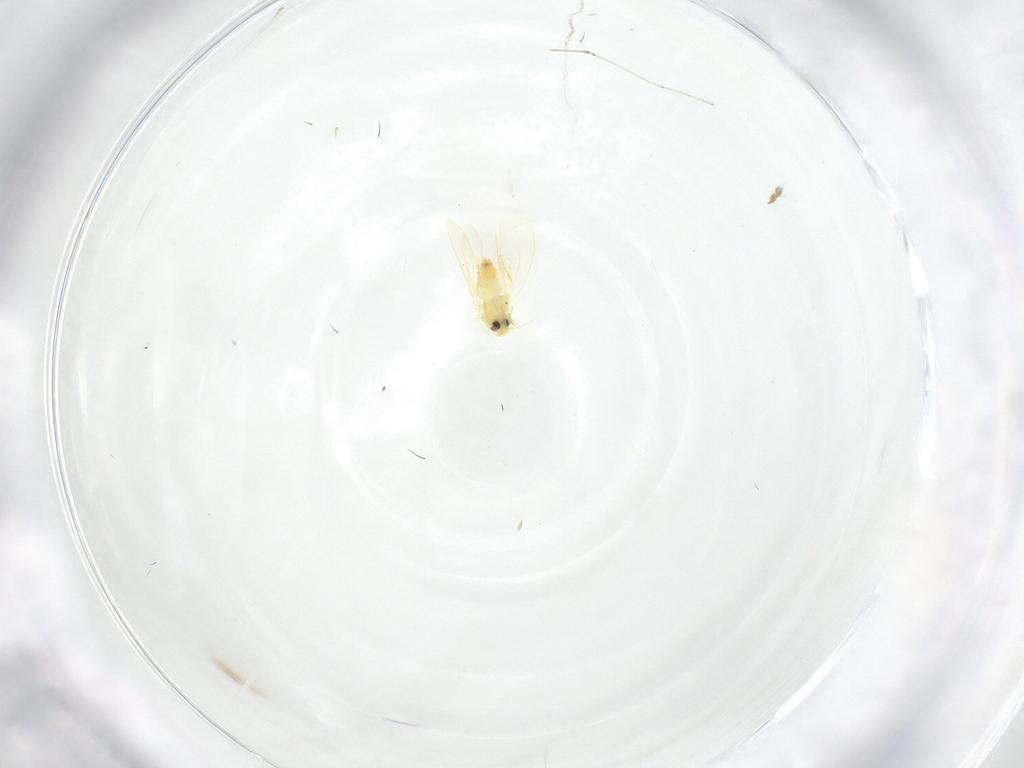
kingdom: Animalia
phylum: Arthropoda
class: Insecta
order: Hemiptera
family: Aleyrodidae
